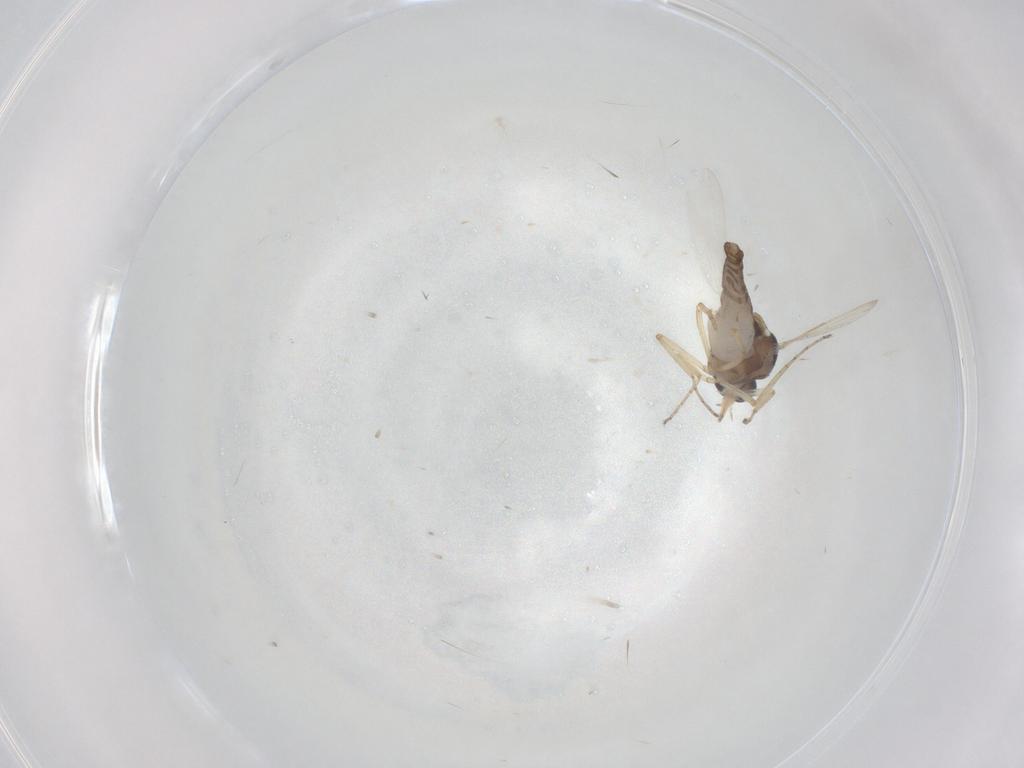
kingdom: Animalia
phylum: Arthropoda
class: Insecta
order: Diptera
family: Ceratopogonidae
